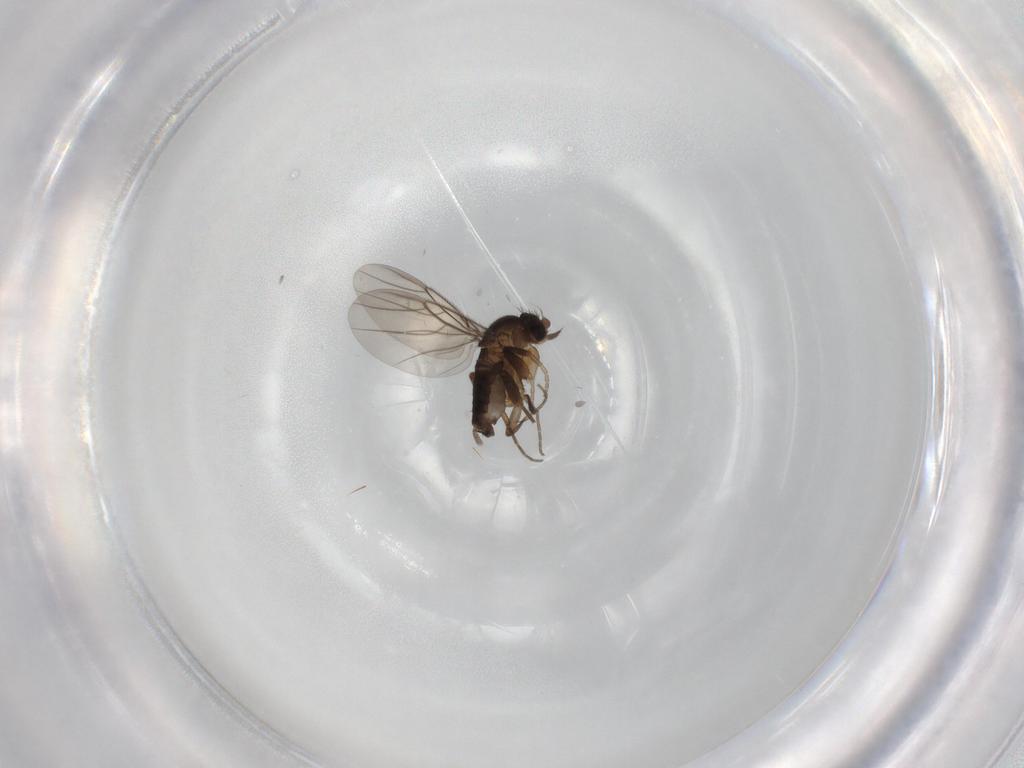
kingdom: Animalia
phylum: Arthropoda
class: Insecta
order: Diptera
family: Phoridae
